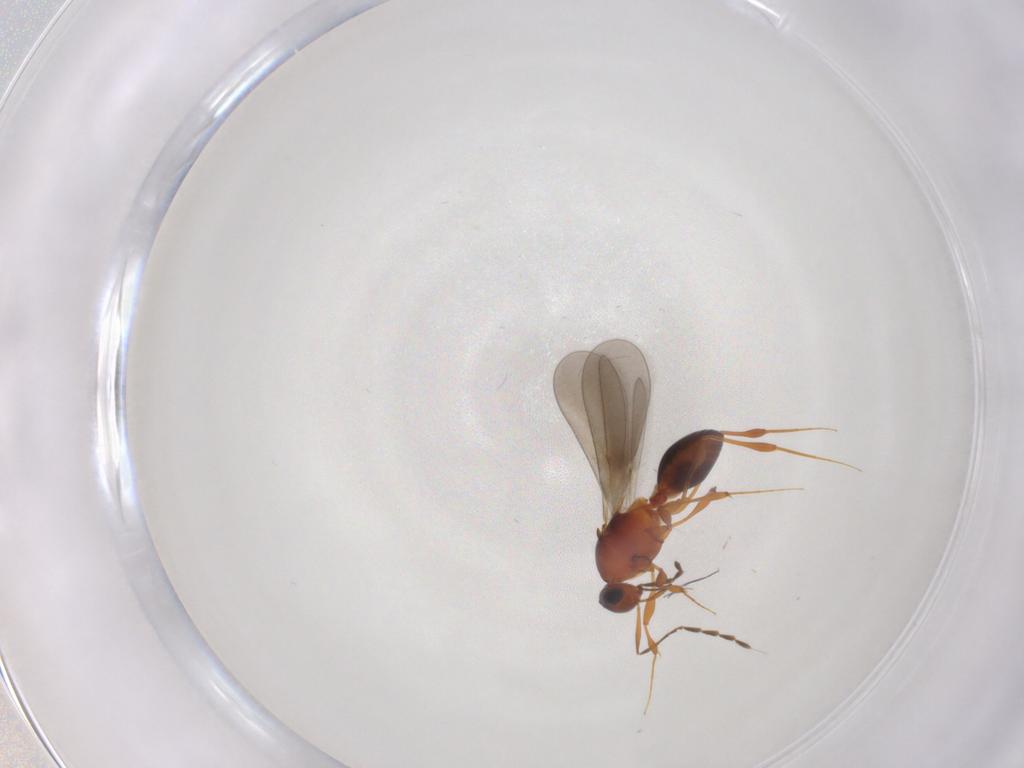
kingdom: Animalia
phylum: Arthropoda
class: Insecta
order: Hymenoptera
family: Platygastridae
